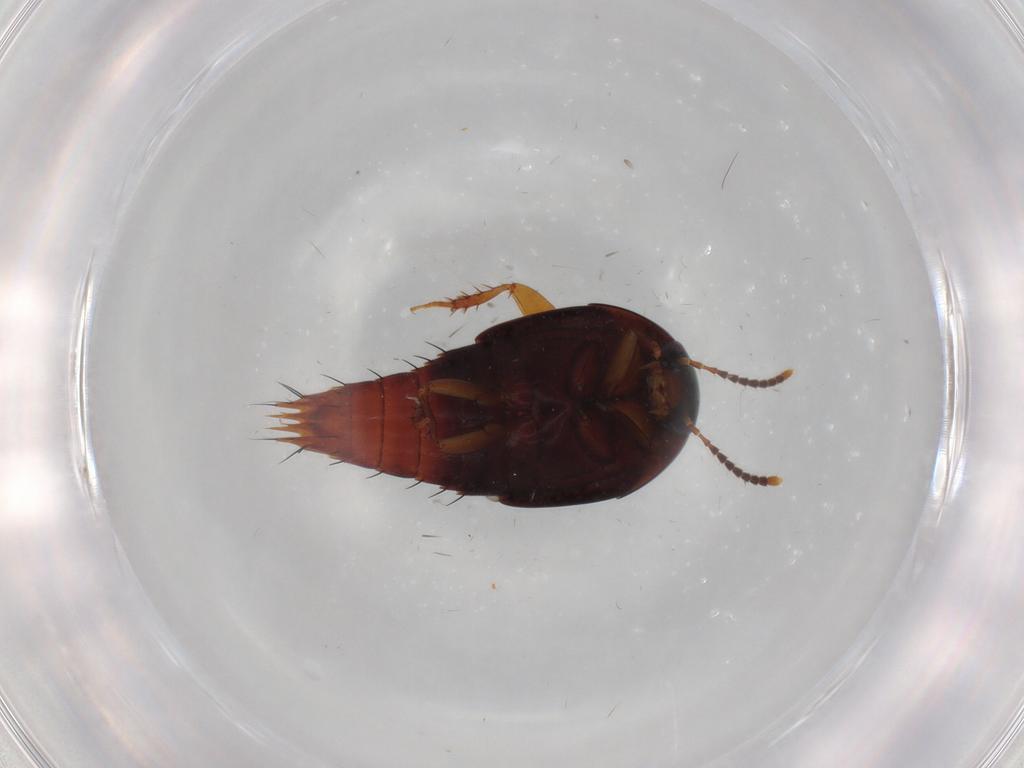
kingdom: Animalia
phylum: Arthropoda
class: Insecta
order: Coleoptera
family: Staphylinidae
